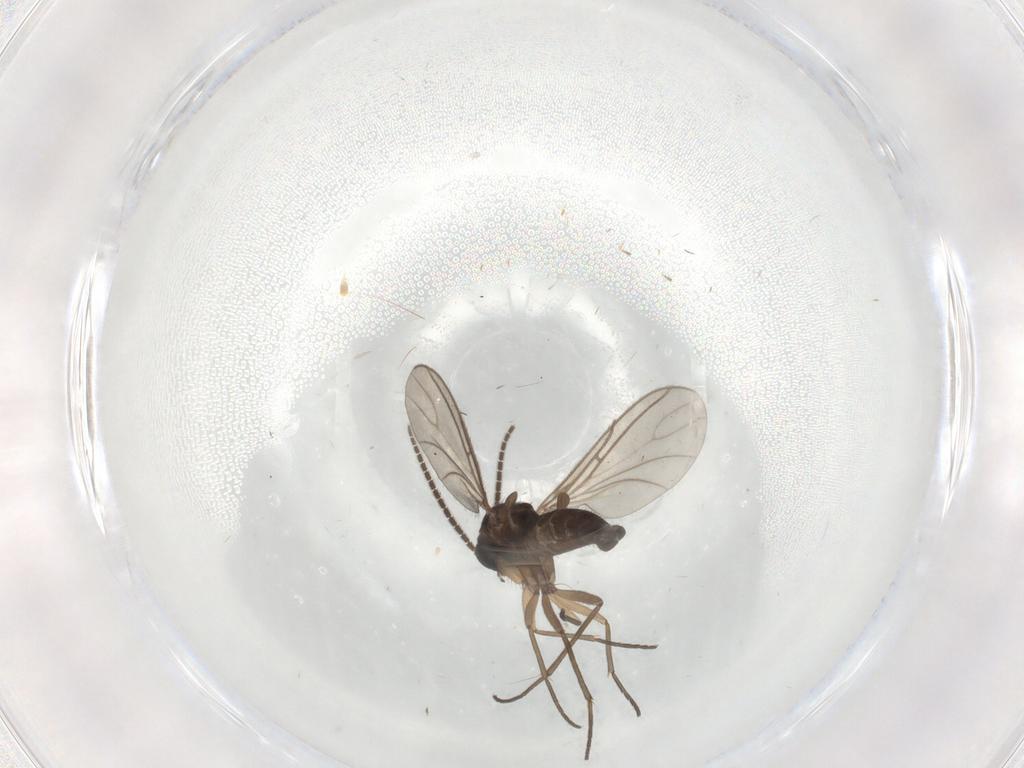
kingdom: Animalia
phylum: Arthropoda
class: Insecta
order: Diptera
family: Sciaridae
